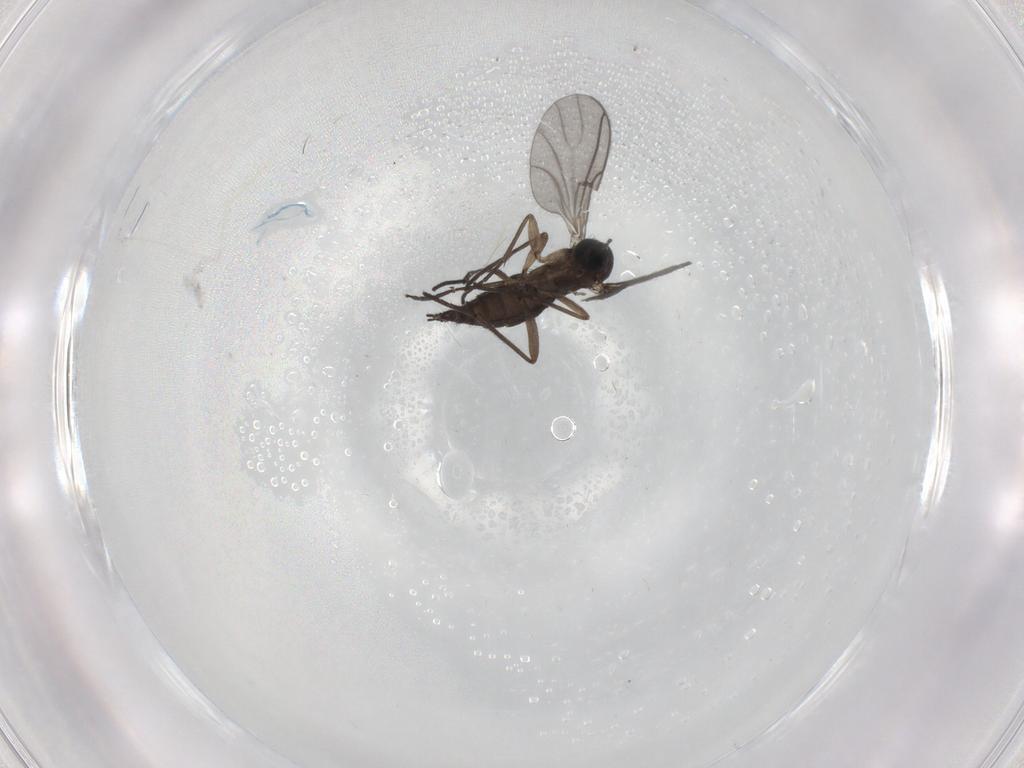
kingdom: Animalia
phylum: Arthropoda
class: Insecta
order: Diptera
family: Sciaridae
